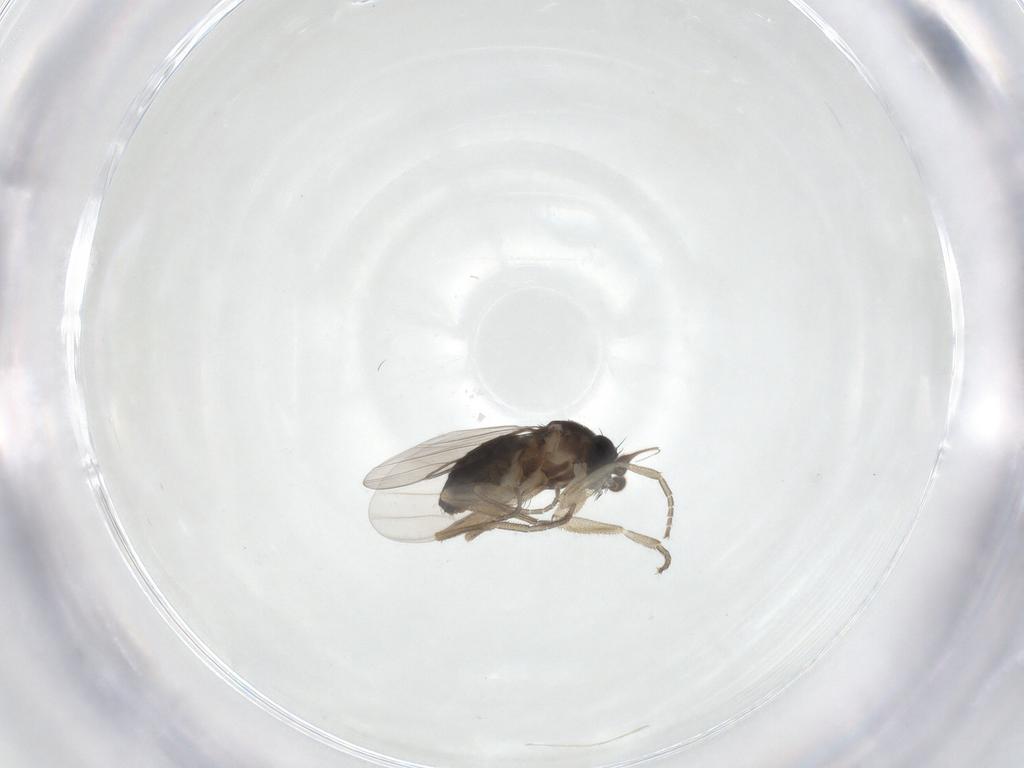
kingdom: Animalia
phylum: Arthropoda
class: Insecta
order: Diptera
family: Phoridae
